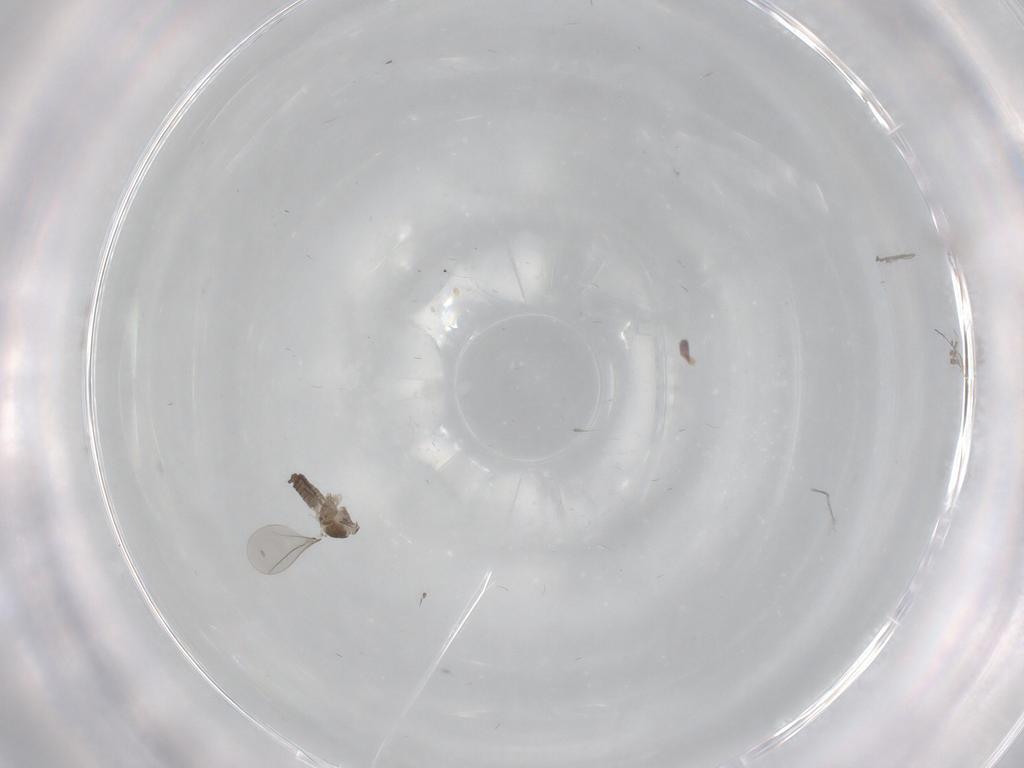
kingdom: Animalia
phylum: Arthropoda
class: Insecta
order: Diptera
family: Cecidomyiidae
